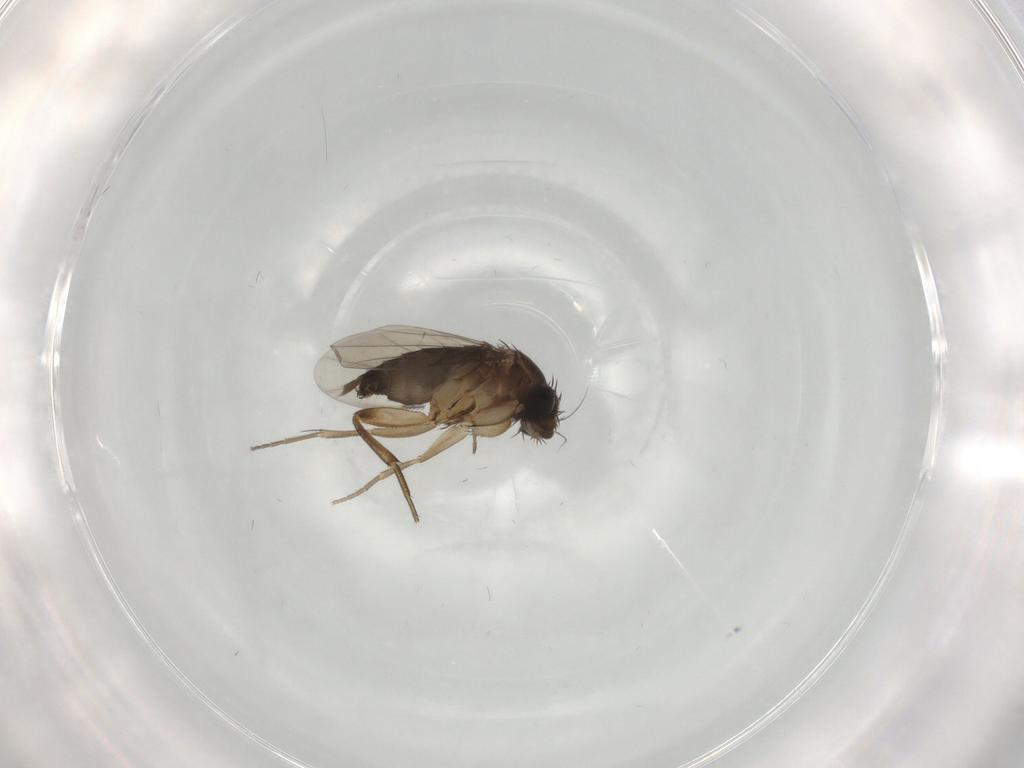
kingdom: Animalia
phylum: Arthropoda
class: Insecta
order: Diptera
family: Phoridae
